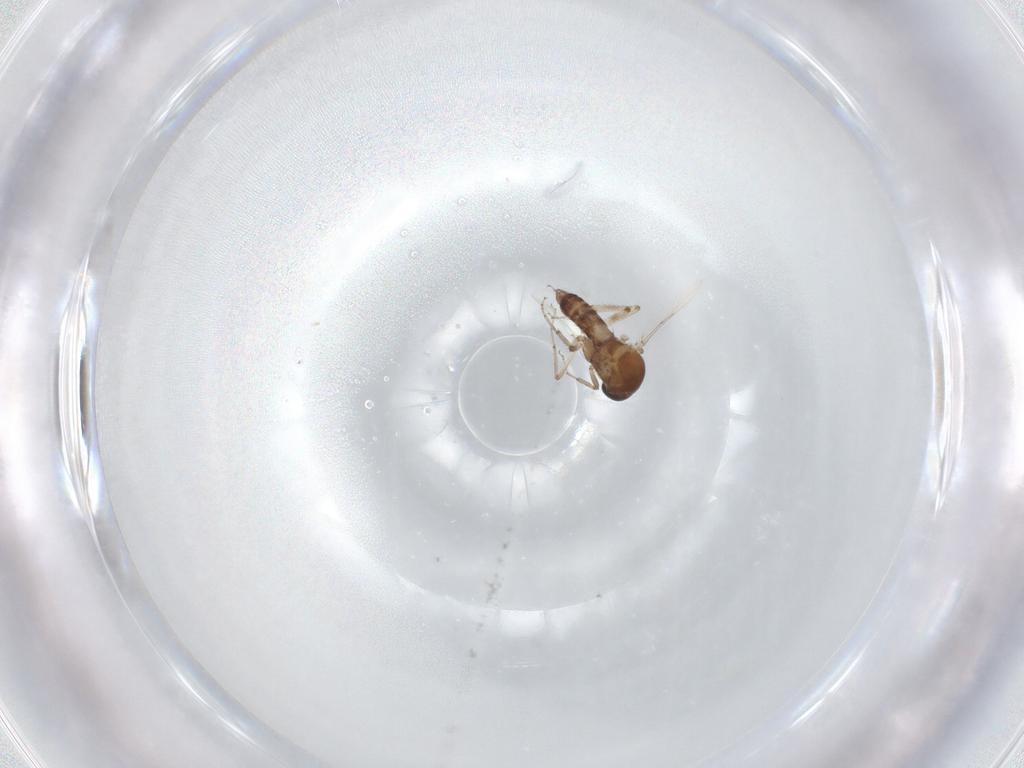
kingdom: Animalia
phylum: Arthropoda
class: Insecta
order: Diptera
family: Ceratopogonidae
